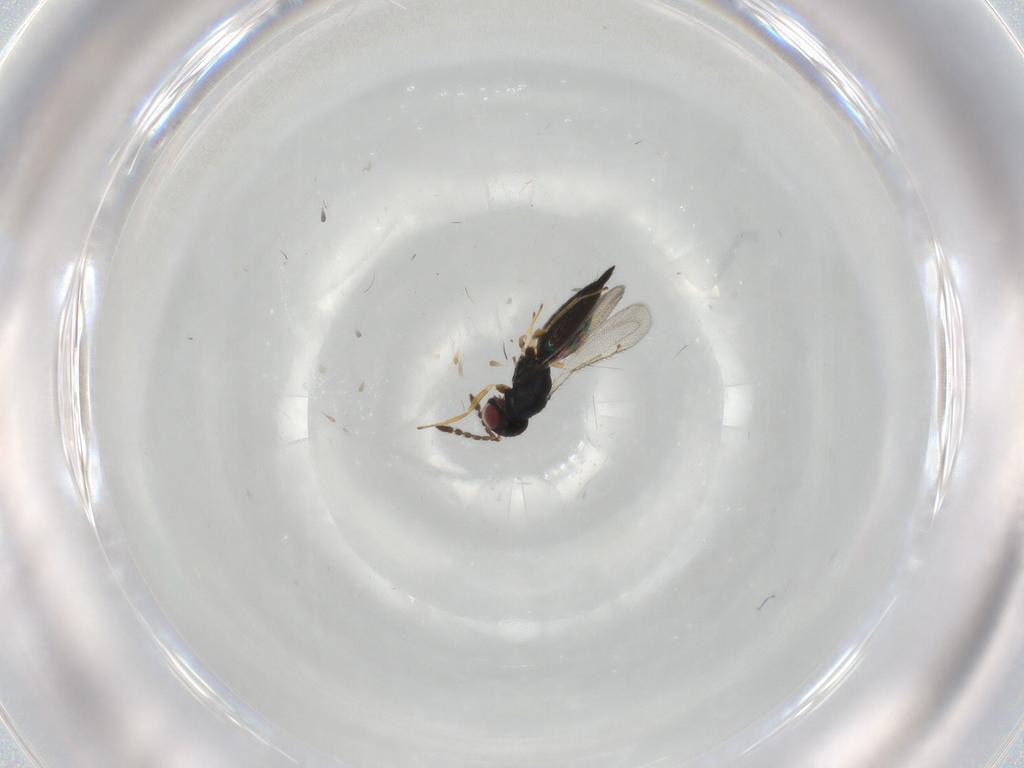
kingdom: Animalia
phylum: Arthropoda
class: Insecta
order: Hymenoptera
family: Eulophidae
